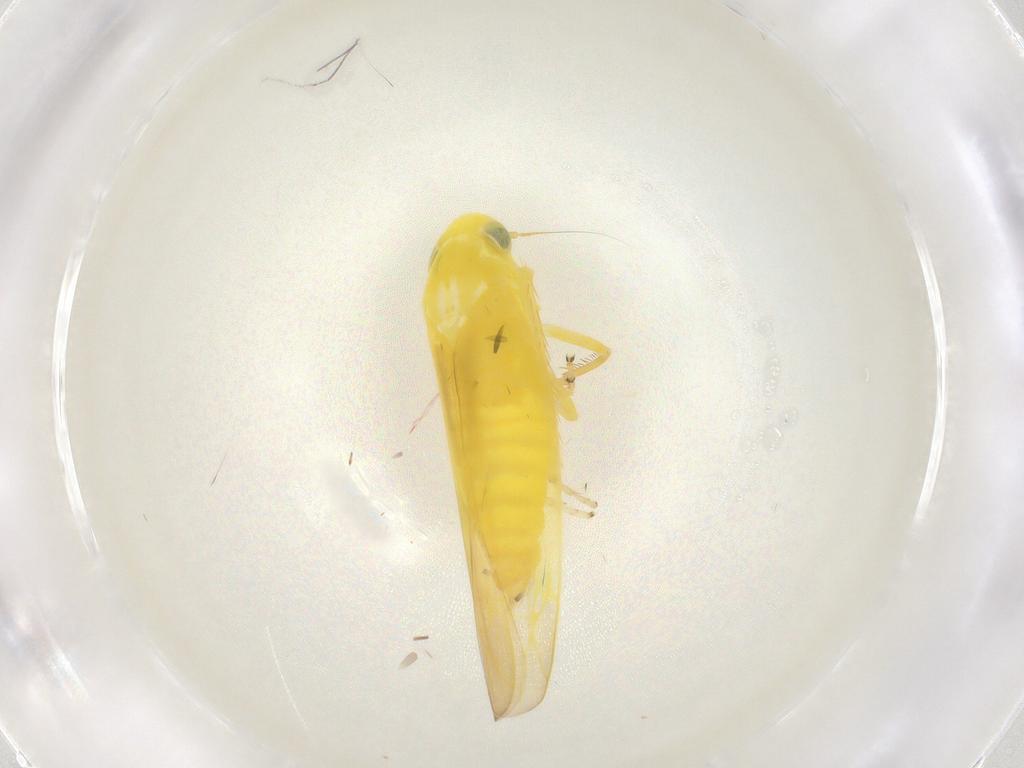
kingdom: Animalia
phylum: Arthropoda
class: Insecta
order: Hemiptera
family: Cicadellidae
